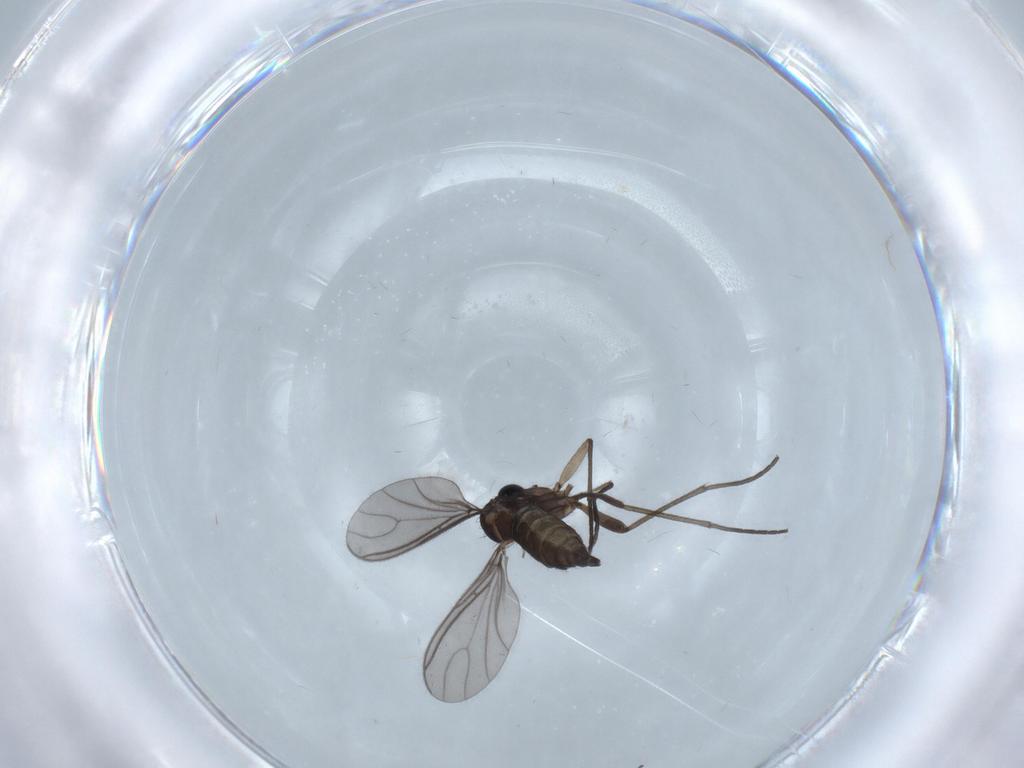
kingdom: Animalia
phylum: Arthropoda
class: Insecta
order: Diptera
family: Sciaridae
